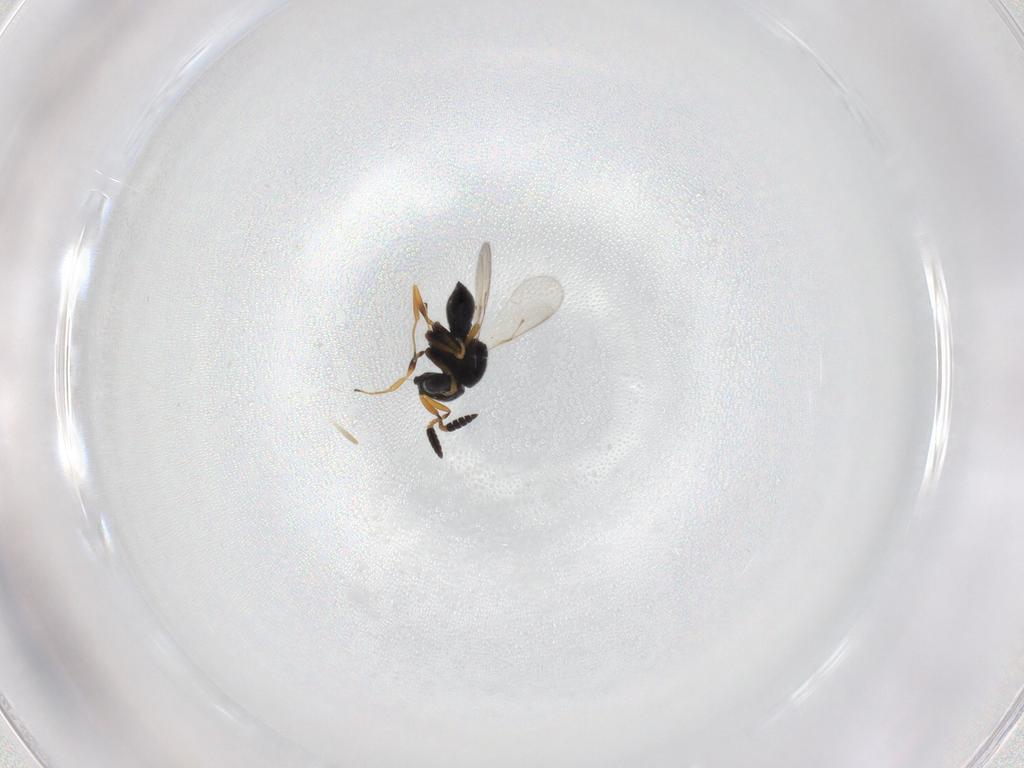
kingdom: Animalia
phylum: Arthropoda
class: Insecta
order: Hymenoptera
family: Scelionidae
